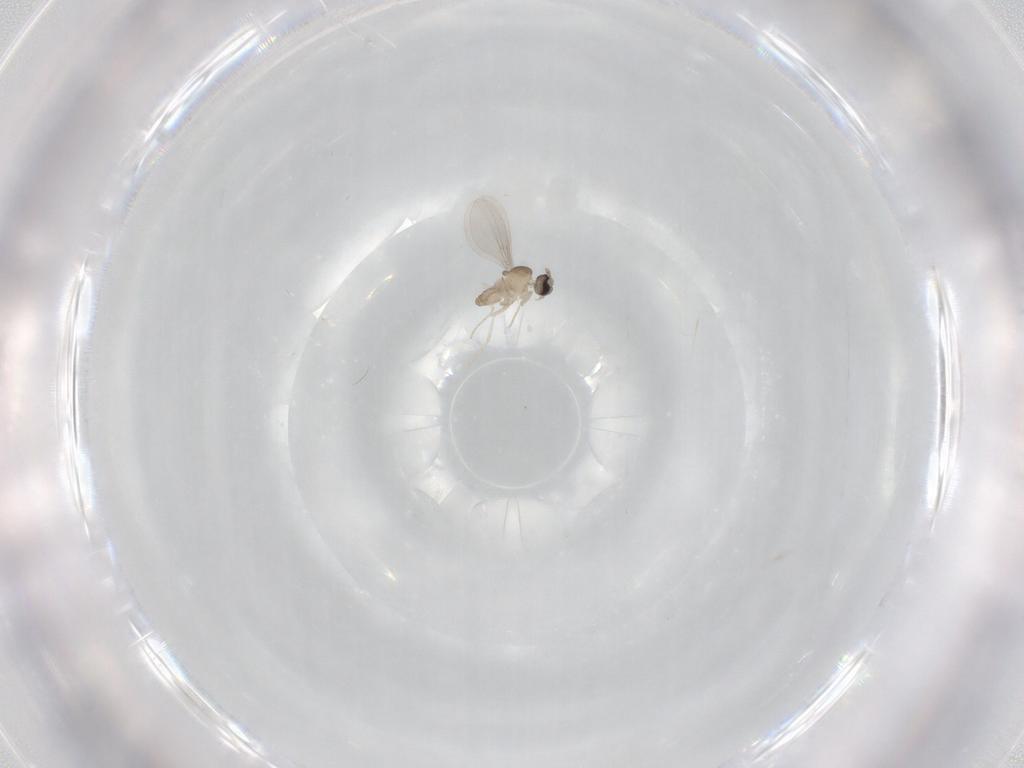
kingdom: Animalia
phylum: Arthropoda
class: Insecta
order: Diptera
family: Cecidomyiidae
